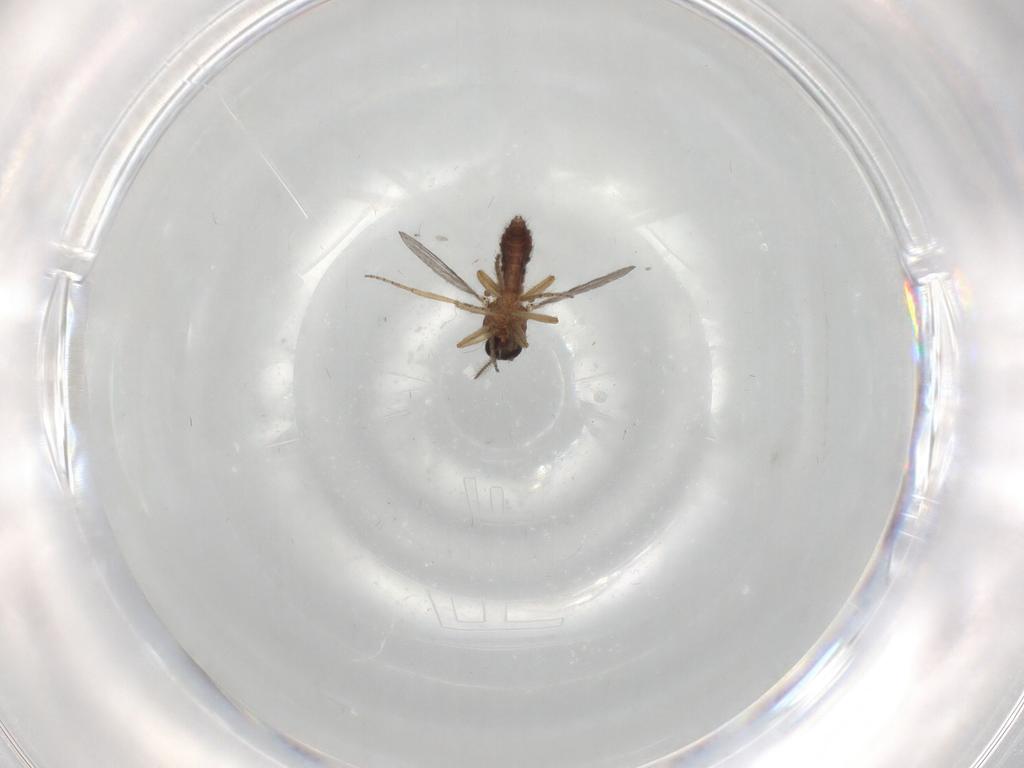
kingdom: Animalia
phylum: Arthropoda
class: Insecta
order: Diptera
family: Ceratopogonidae
